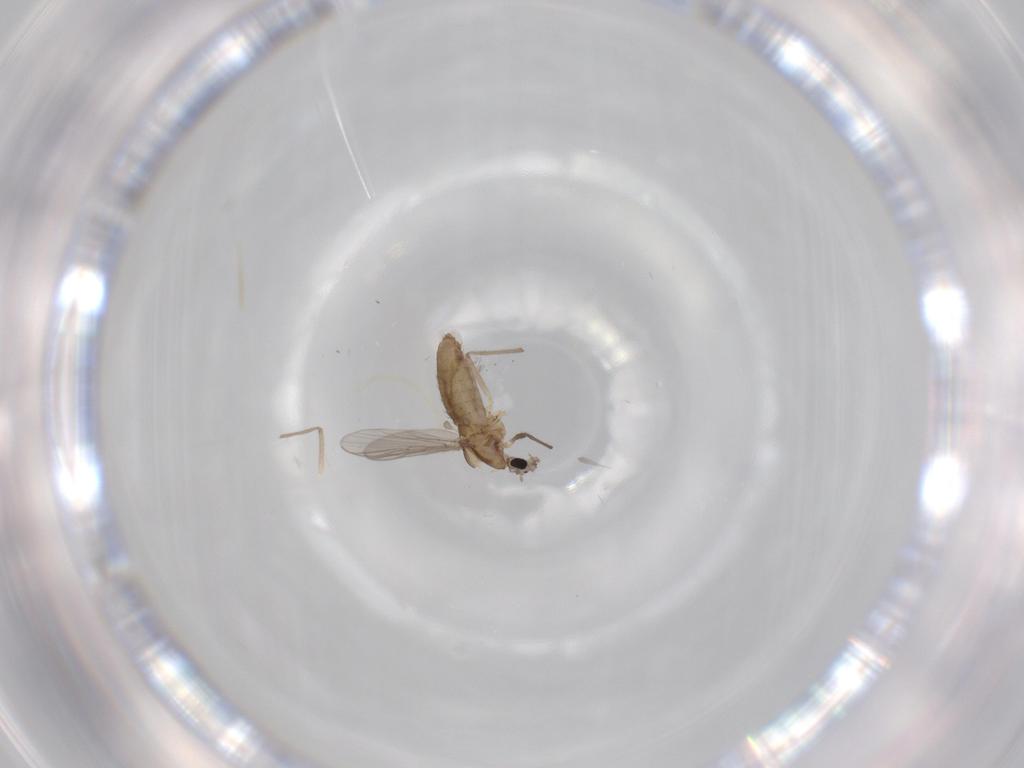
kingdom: Animalia
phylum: Arthropoda
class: Insecta
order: Diptera
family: Chironomidae
